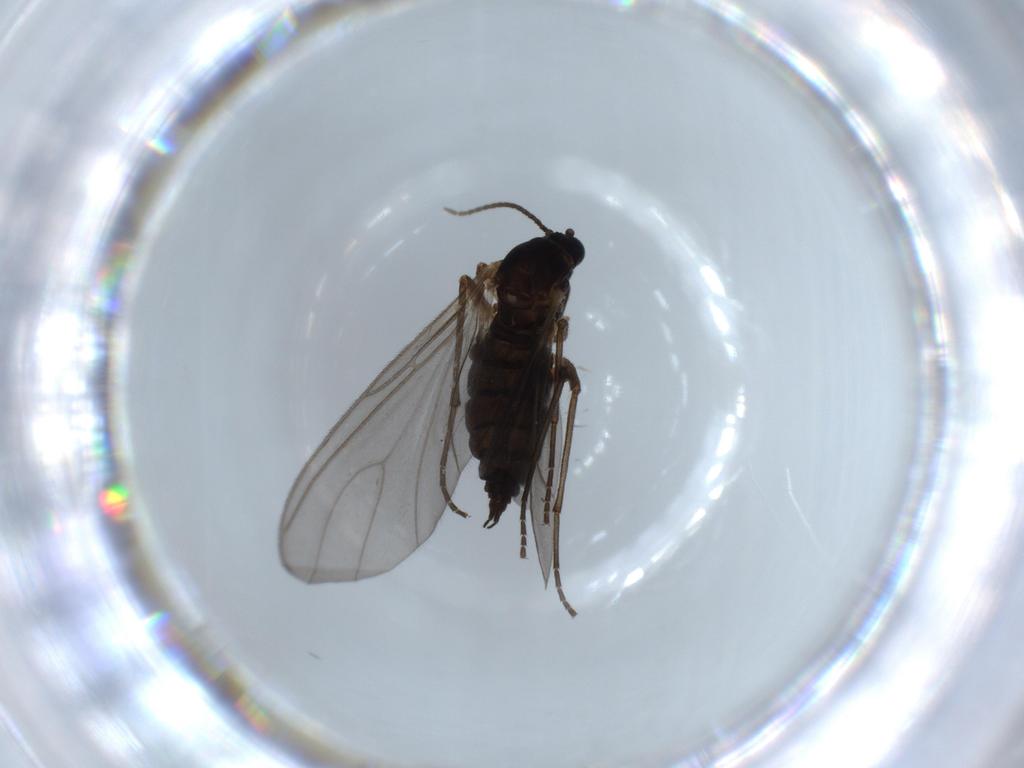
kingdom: Animalia
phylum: Arthropoda
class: Insecta
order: Diptera
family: Sciaridae
